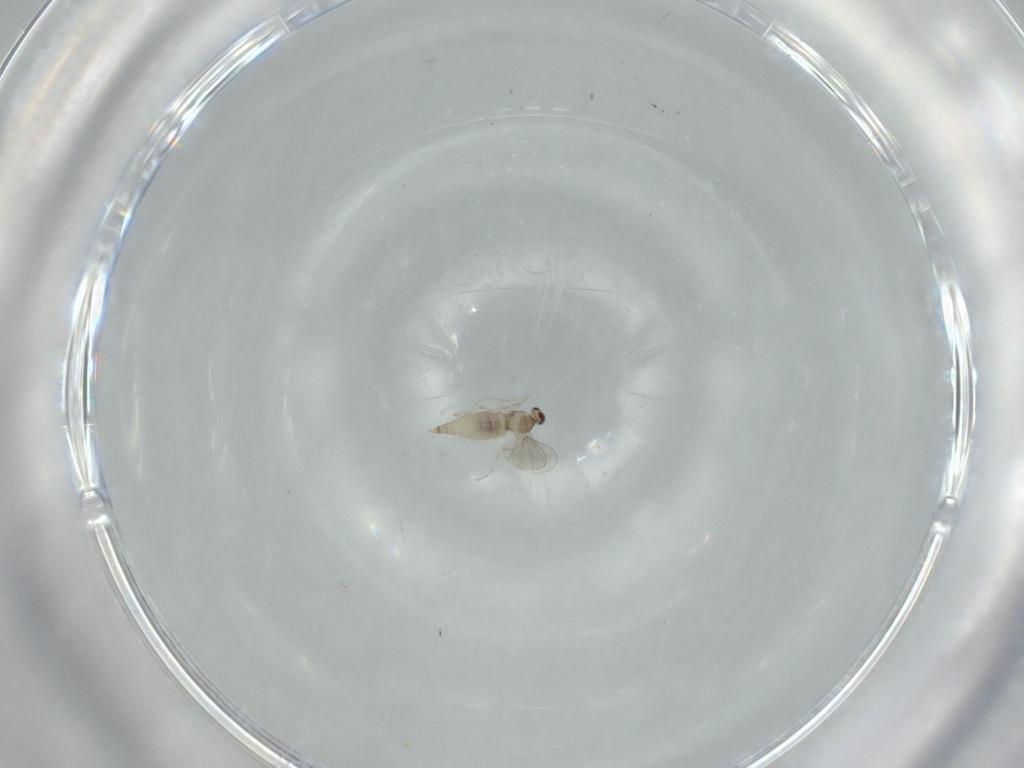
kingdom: Animalia
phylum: Arthropoda
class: Insecta
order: Diptera
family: Cecidomyiidae
